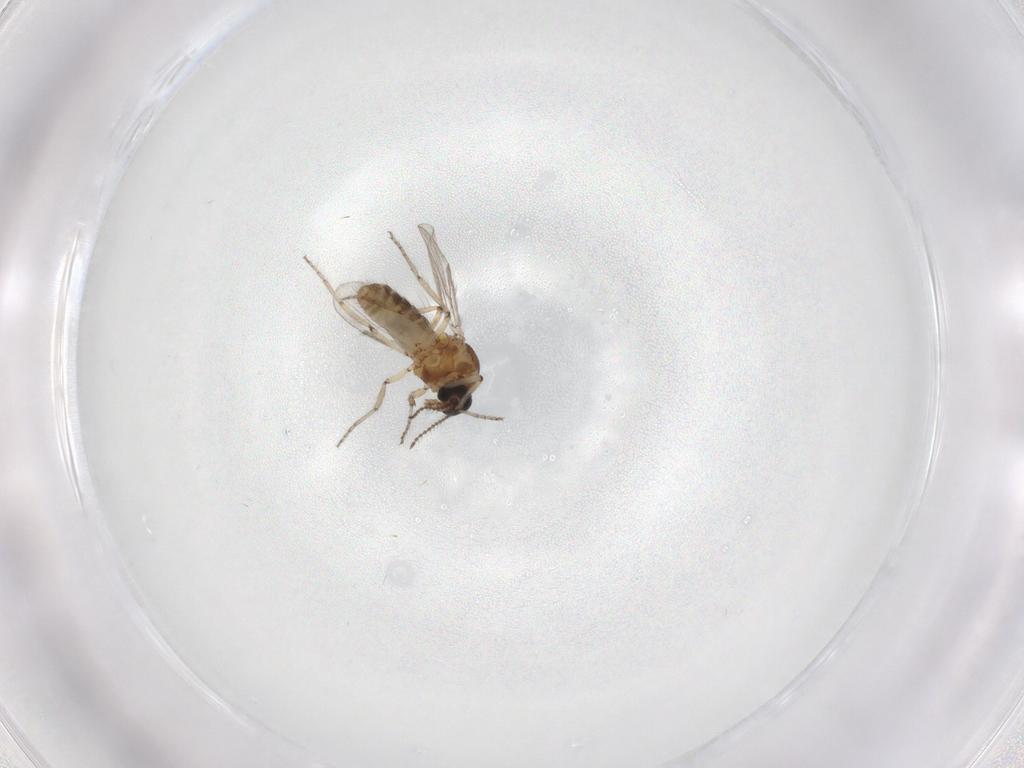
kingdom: Animalia
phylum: Arthropoda
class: Insecta
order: Diptera
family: Ceratopogonidae
